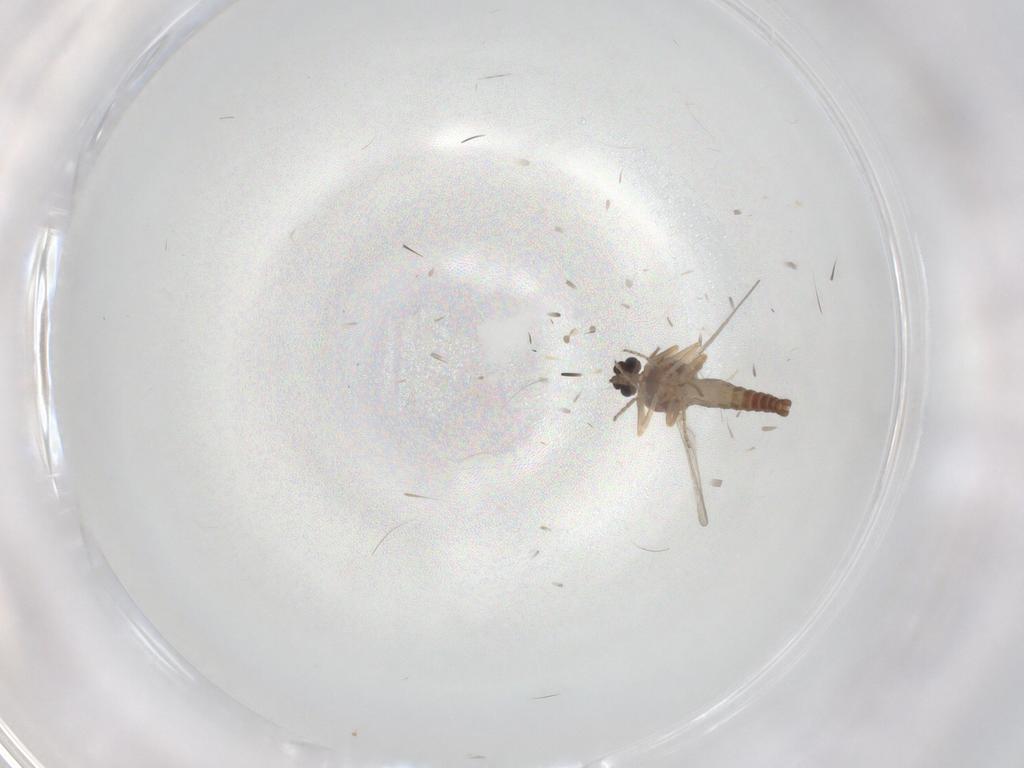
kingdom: Animalia
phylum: Arthropoda
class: Insecta
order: Diptera
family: Ceratopogonidae
